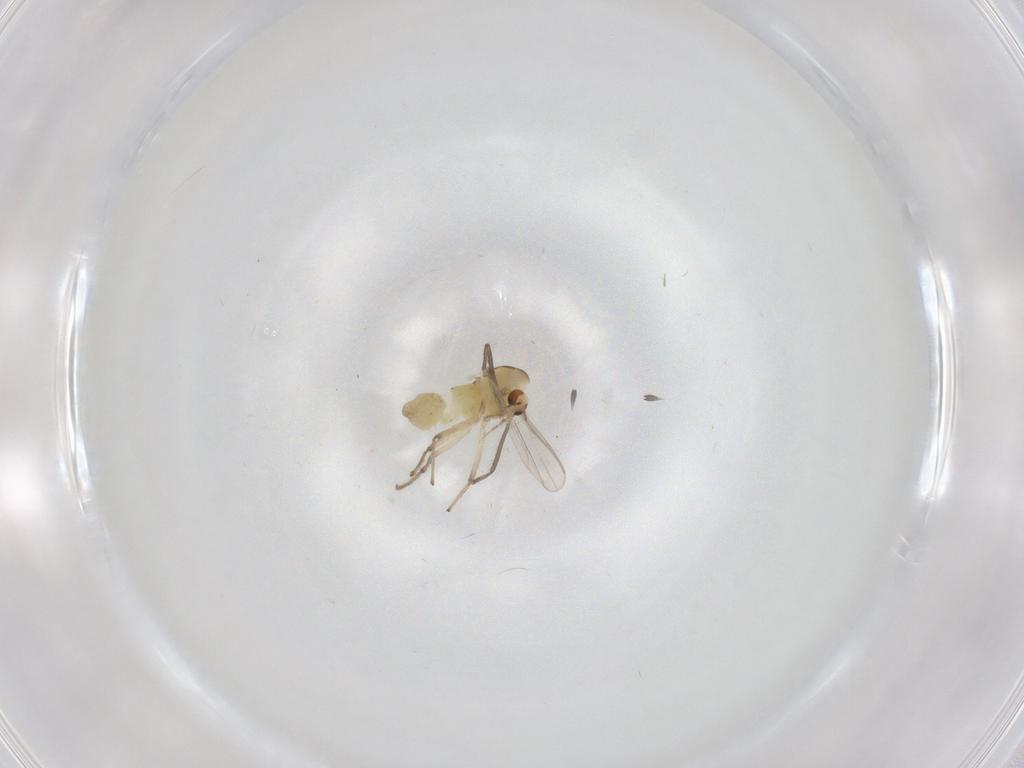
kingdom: Animalia
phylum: Arthropoda
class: Insecta
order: Diptera
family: Chironomidae
